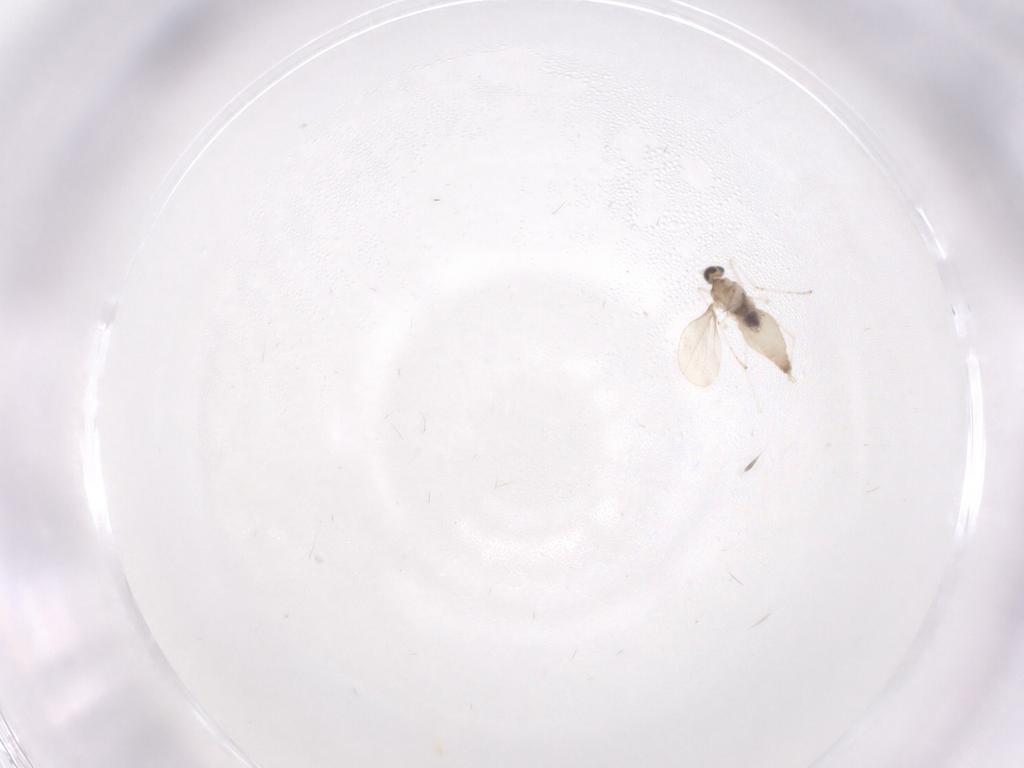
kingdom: Animalia
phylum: Arthropoda
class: Insecta
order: Diptera
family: Cecidomyiidae
